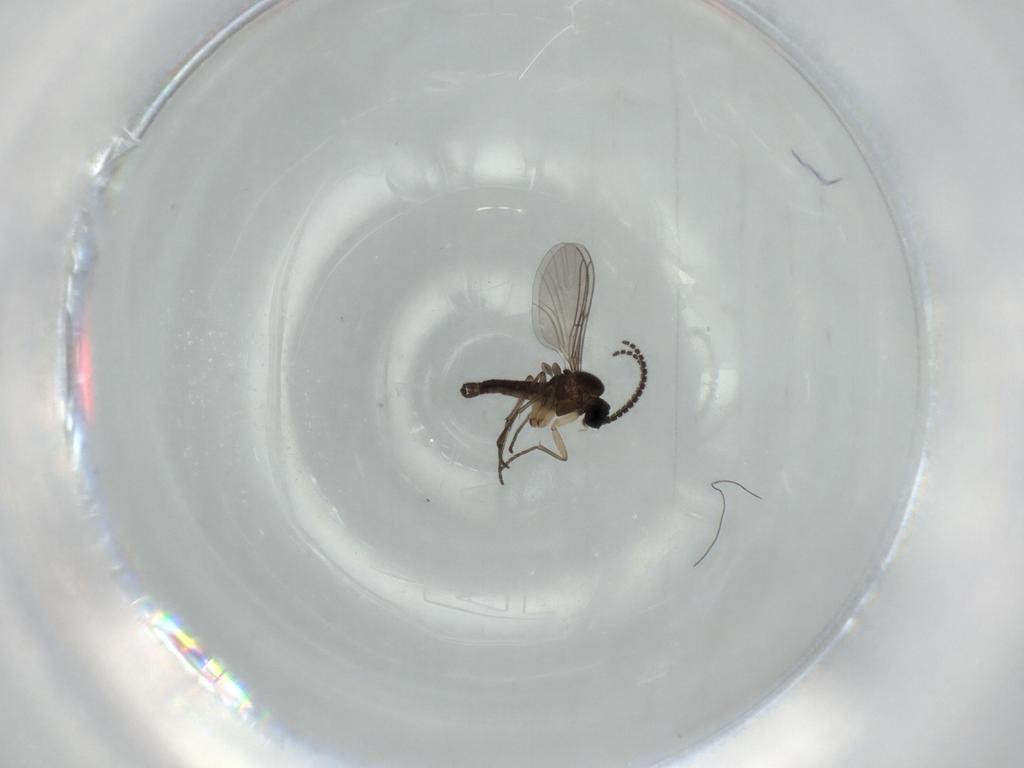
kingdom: Animalia
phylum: Arthropoda
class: Insecta
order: Diptera
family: Sciaridae
